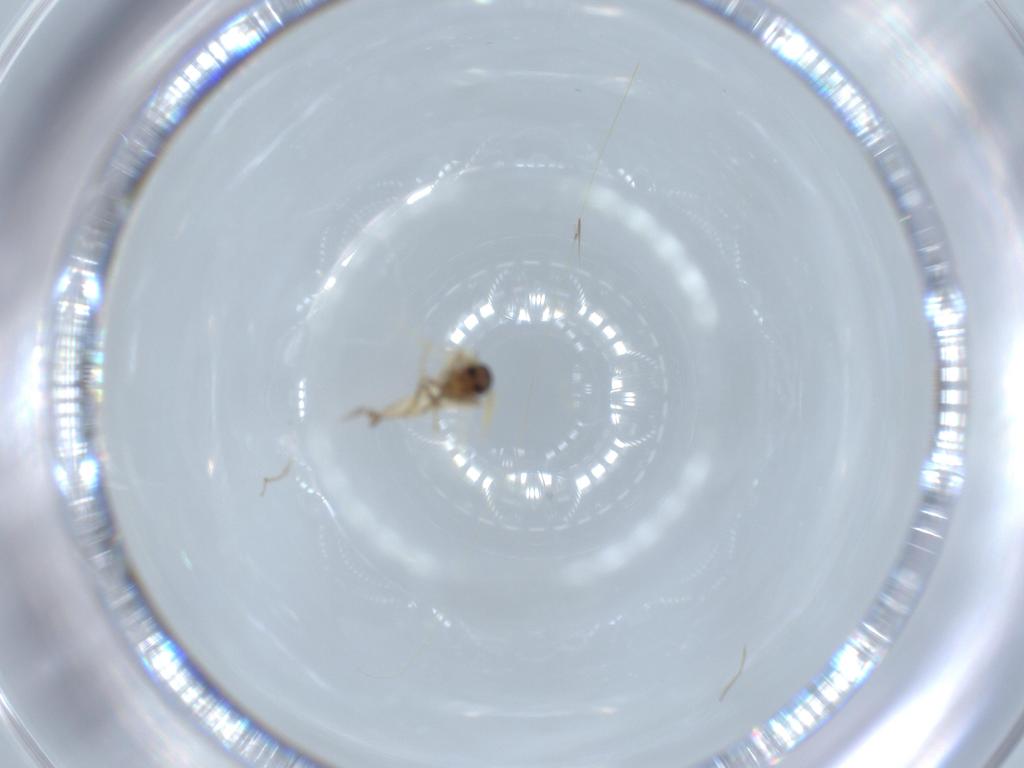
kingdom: Animalia
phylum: Arthropoda
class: Insecta
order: Diptera
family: Ceratopogonidae
